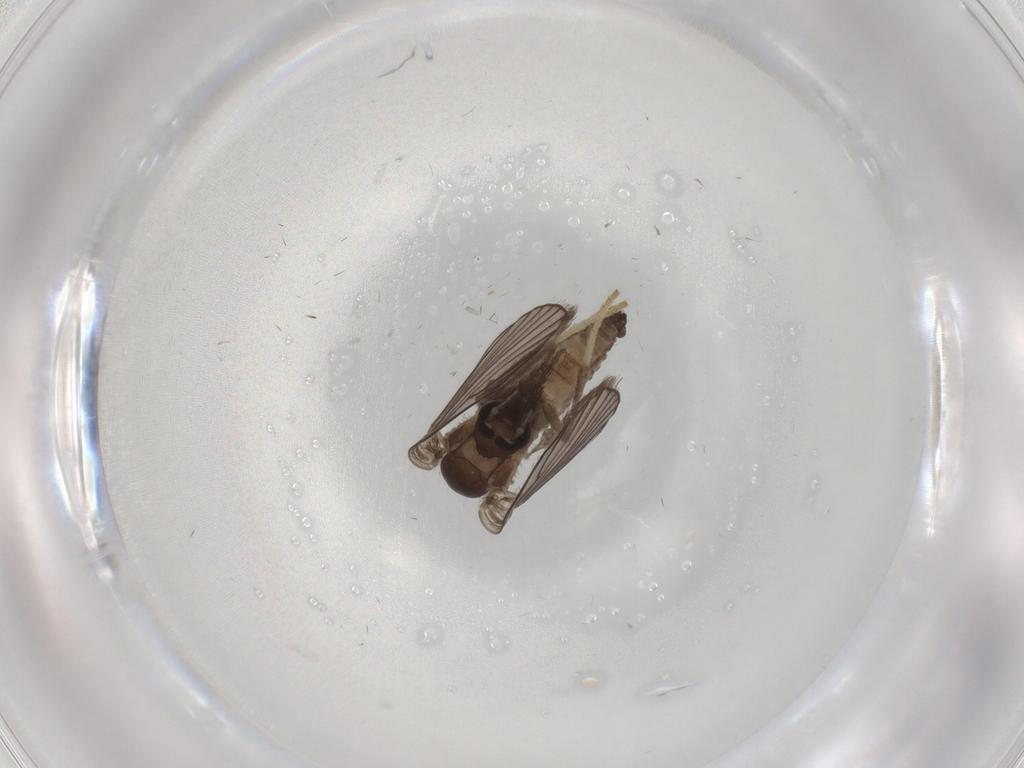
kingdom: Animalia
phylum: Arthropoda
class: Insecta
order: Diptera
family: Psychodidae
